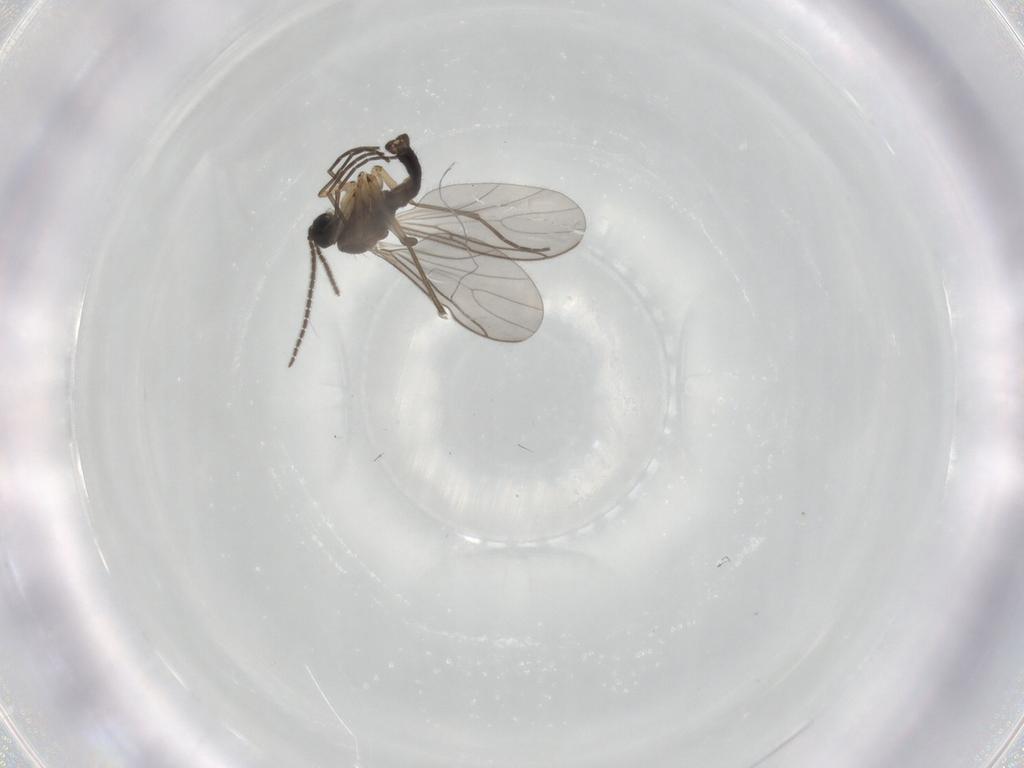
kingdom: Animalia
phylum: Arthropoda
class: Insecta
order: Diptera
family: Sciaridae
